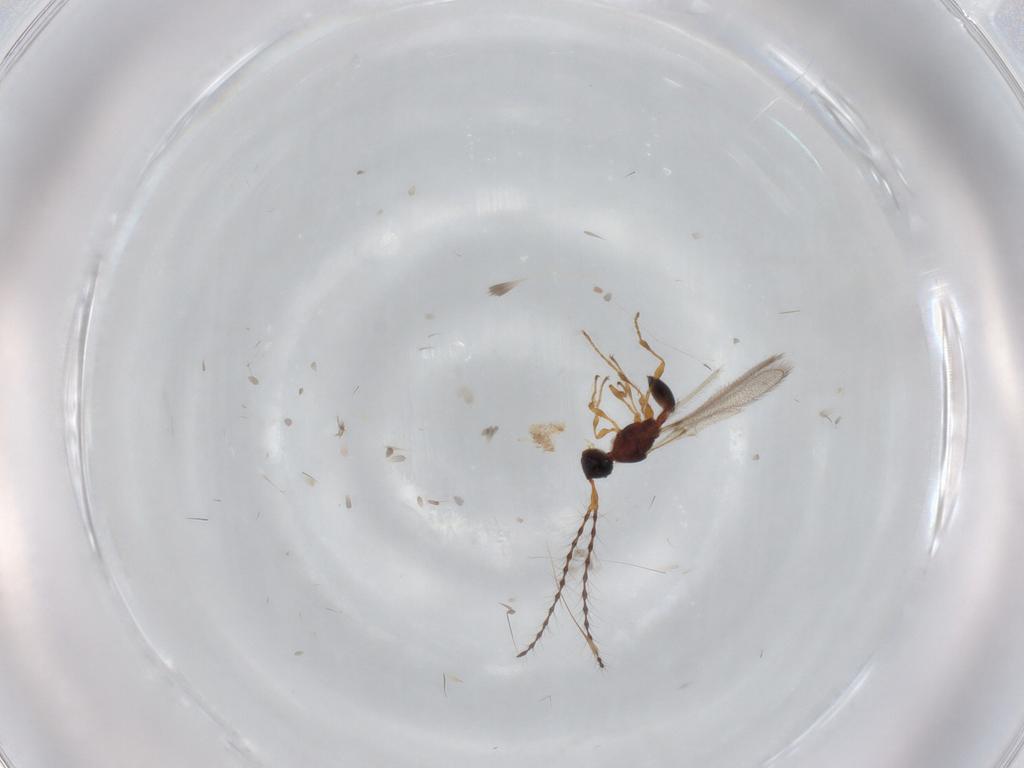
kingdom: Animalia
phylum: Arthropoda
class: Insecta
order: Hymenoptera
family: Diapriidae
